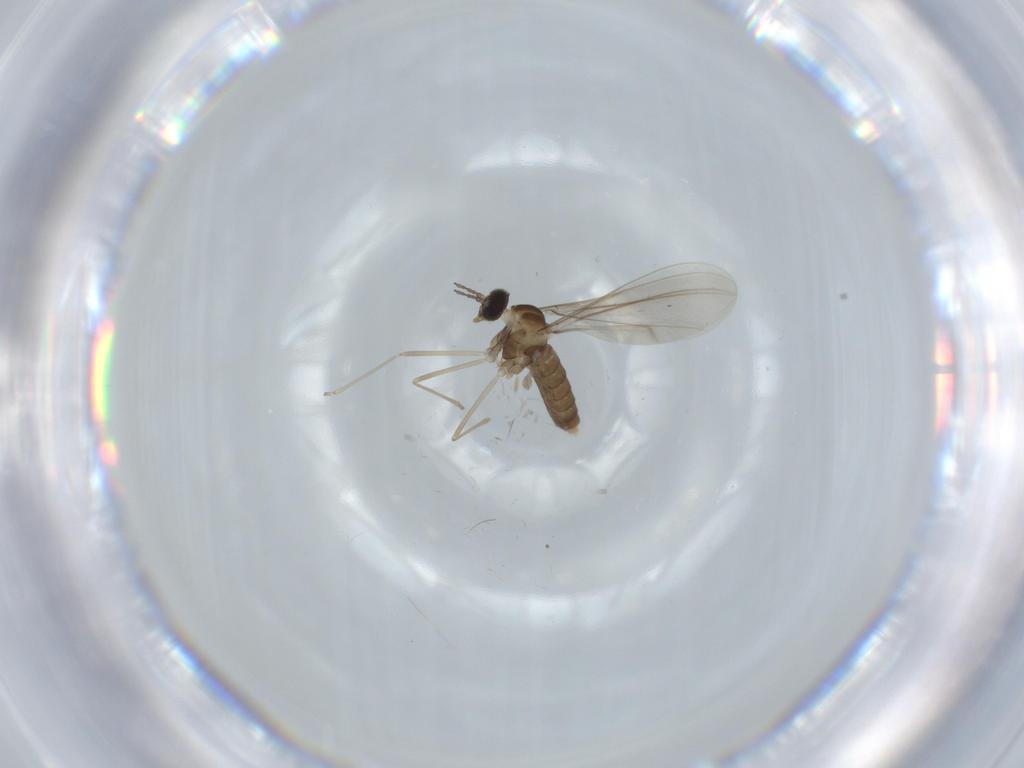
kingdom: Animalia
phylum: Arthropoda
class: Insecta
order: Diptera
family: Cecidomyiidae
